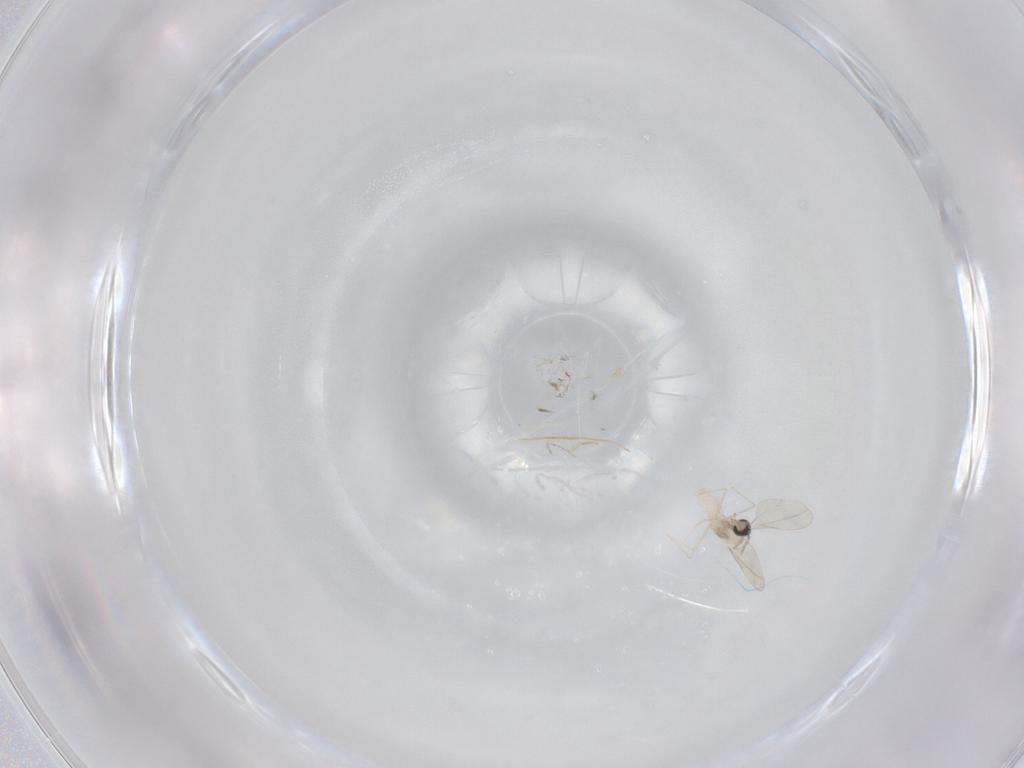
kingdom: Animalia
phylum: Arthropoda
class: Insecta
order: Diptera
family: Cecidomyiidae
